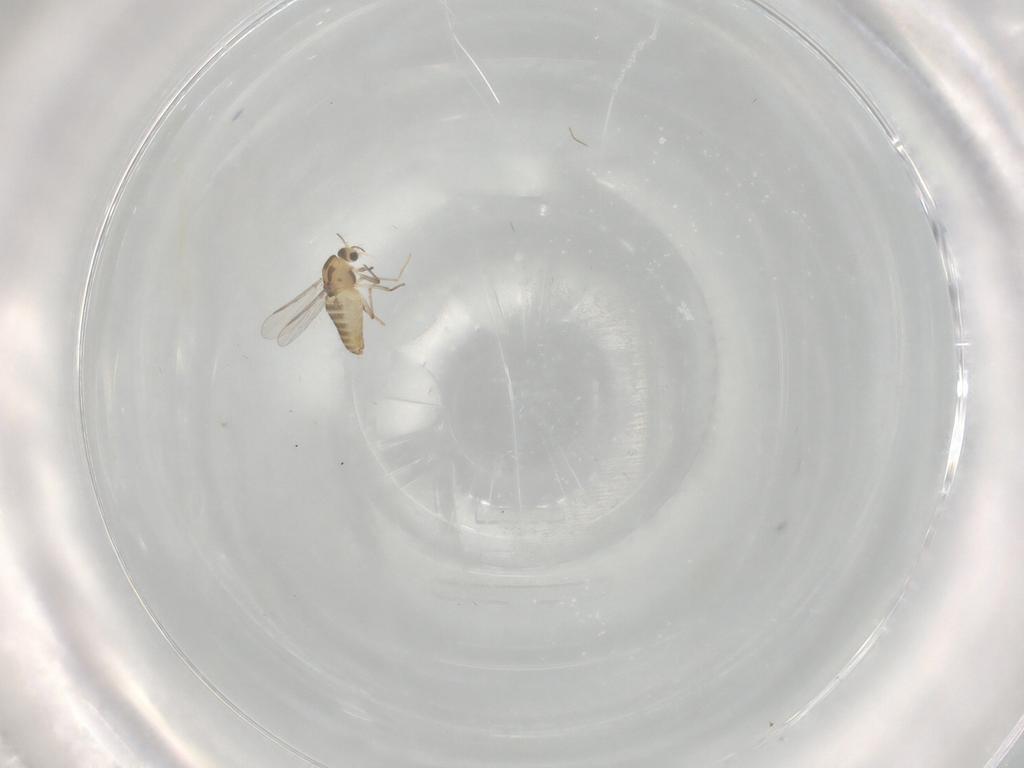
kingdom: Animalia
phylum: Arthropoda
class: Insecta
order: Diptera
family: Chironomidae
